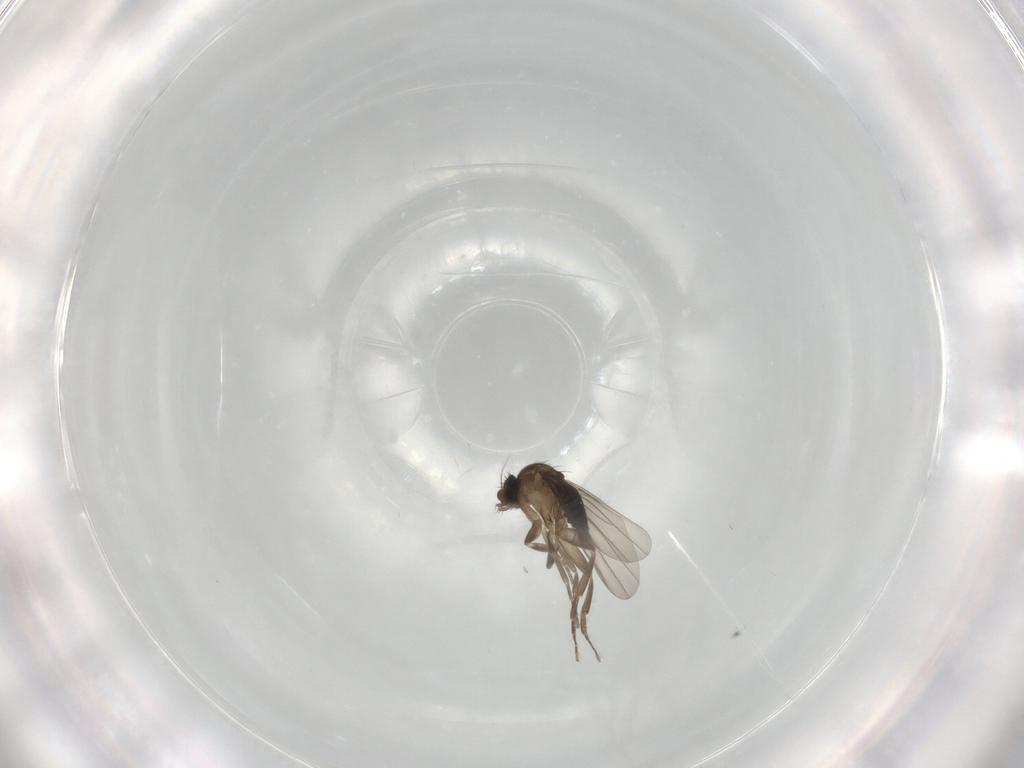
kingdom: Animalia
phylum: Arthropoda
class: Insecta
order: Diptera
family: Phoridae
